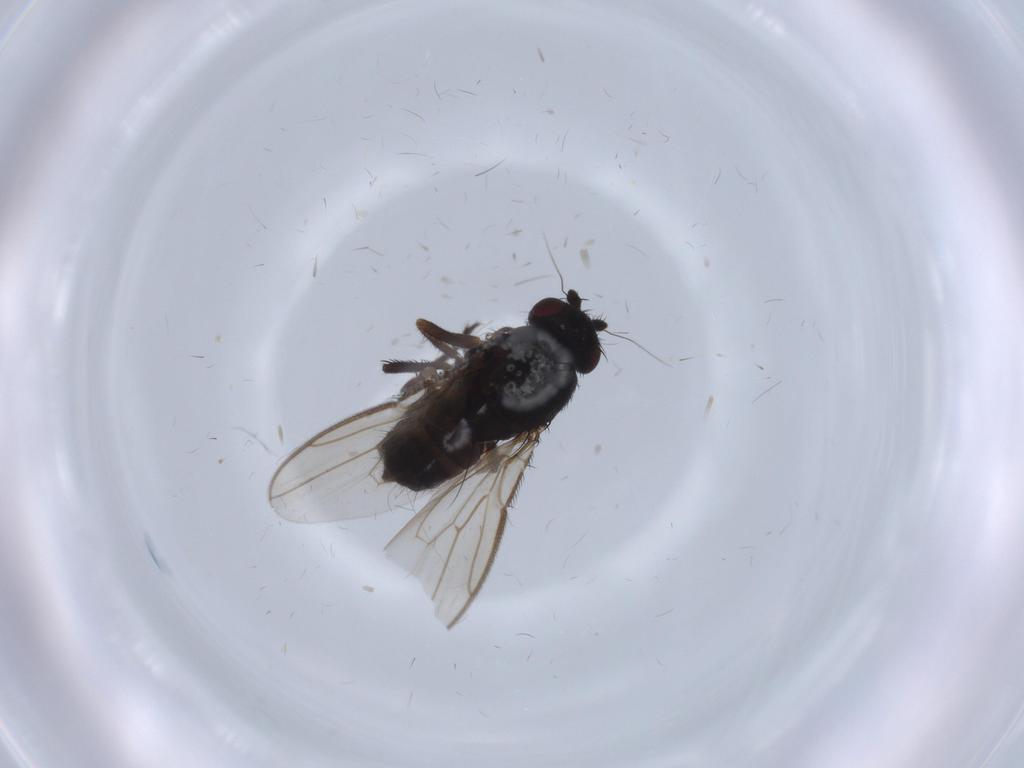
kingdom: Animalia
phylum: Arthropoda
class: Insecta
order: Diptera
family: Sphaeroceridae
